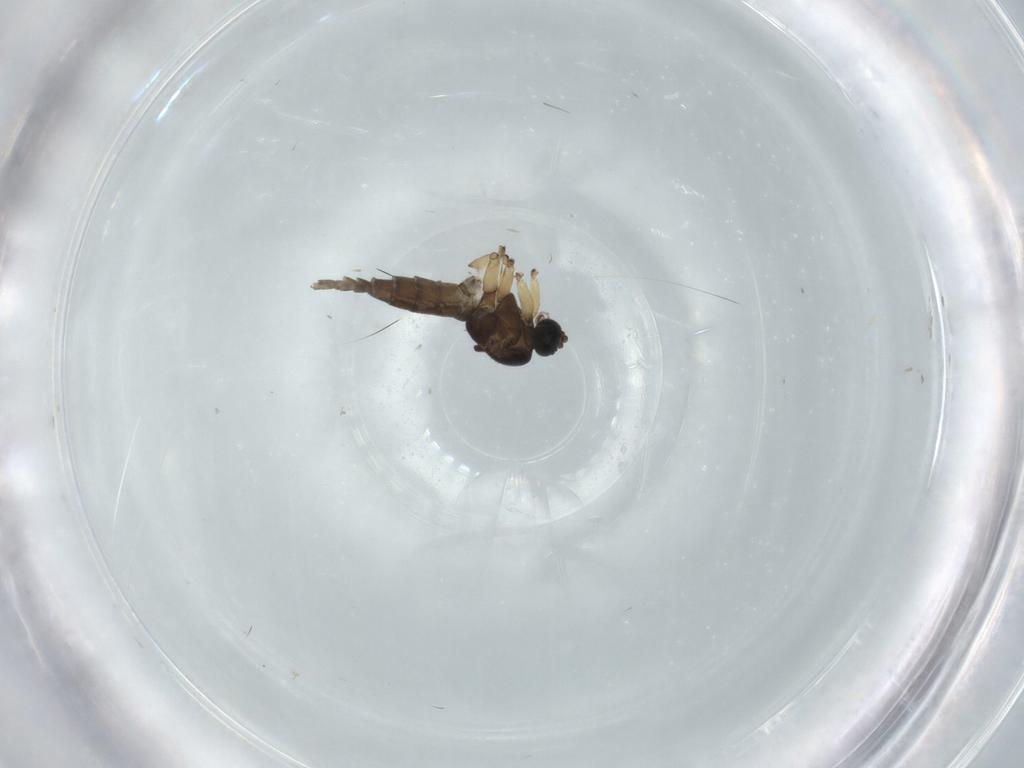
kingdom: Animalia
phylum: Arthropoda
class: Insecta
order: Diptera
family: Sciaridae
